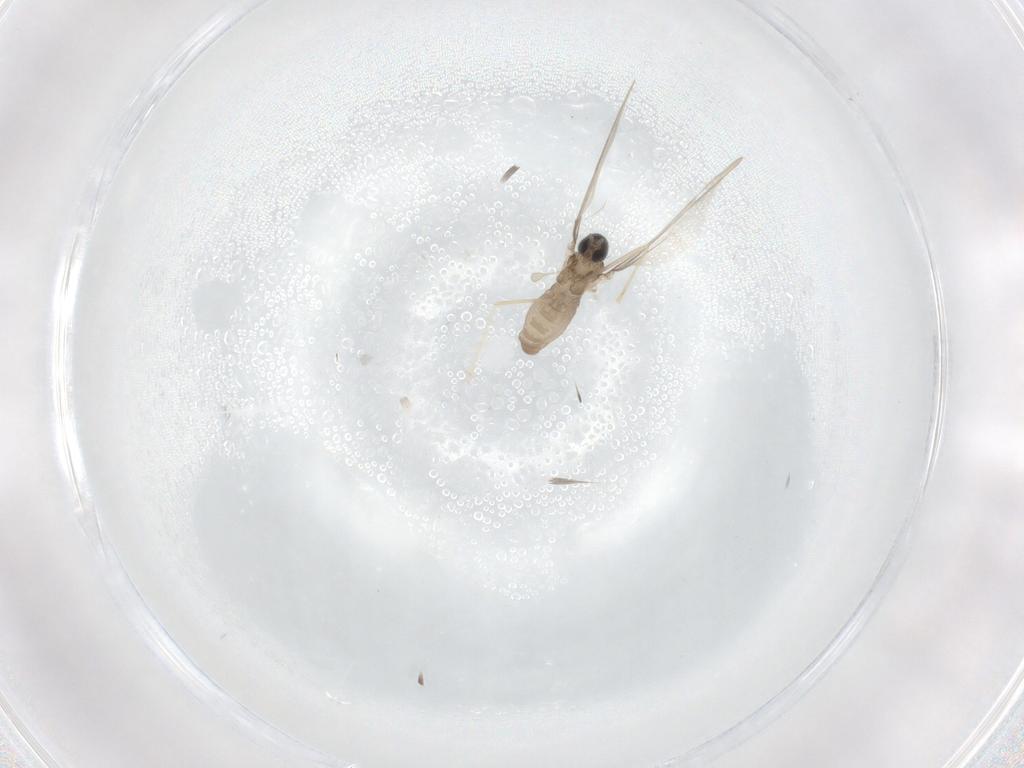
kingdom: Animalia
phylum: Arthropoda
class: Insecta
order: Diptera
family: Cecidomyiidae
